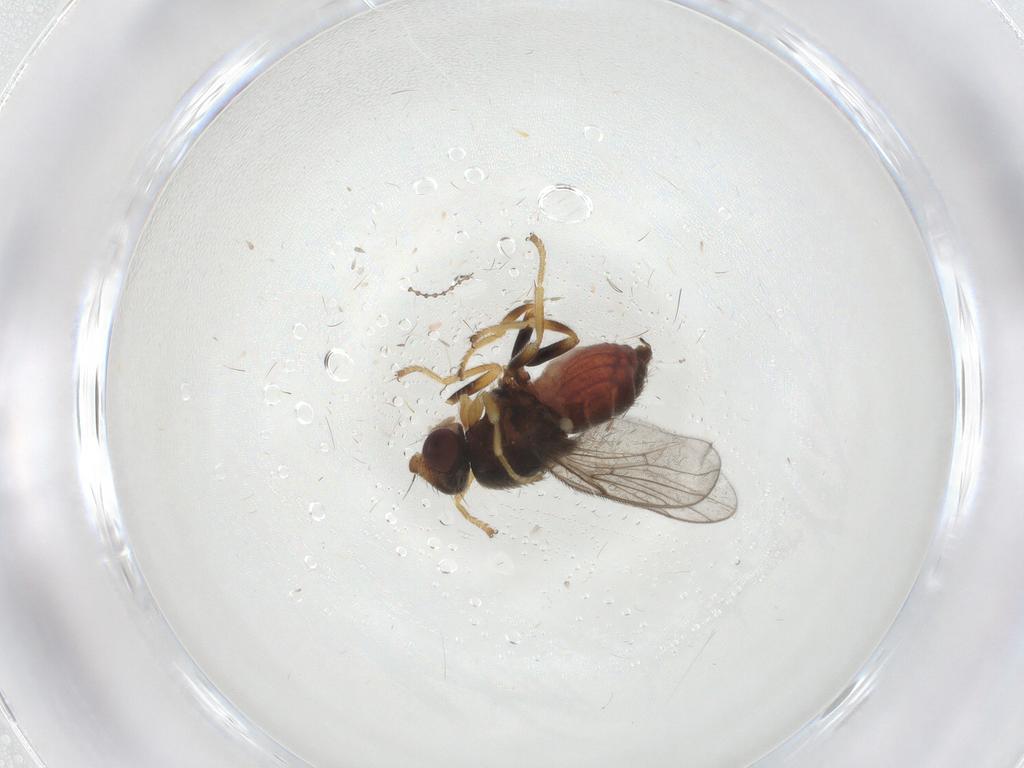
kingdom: Animalia
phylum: Arthropoda
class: Insecta
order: Diptera
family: Chloropidae
